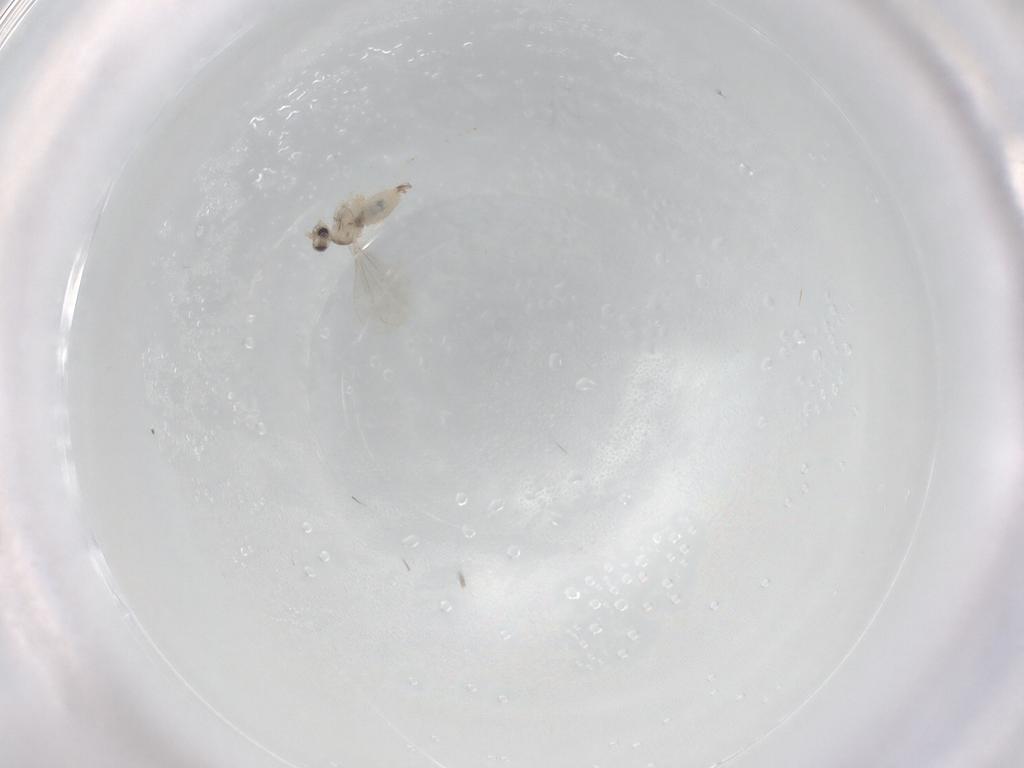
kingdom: Animalia
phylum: Arthropoda
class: Insecta
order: Diptera
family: Cecidomyiidae
